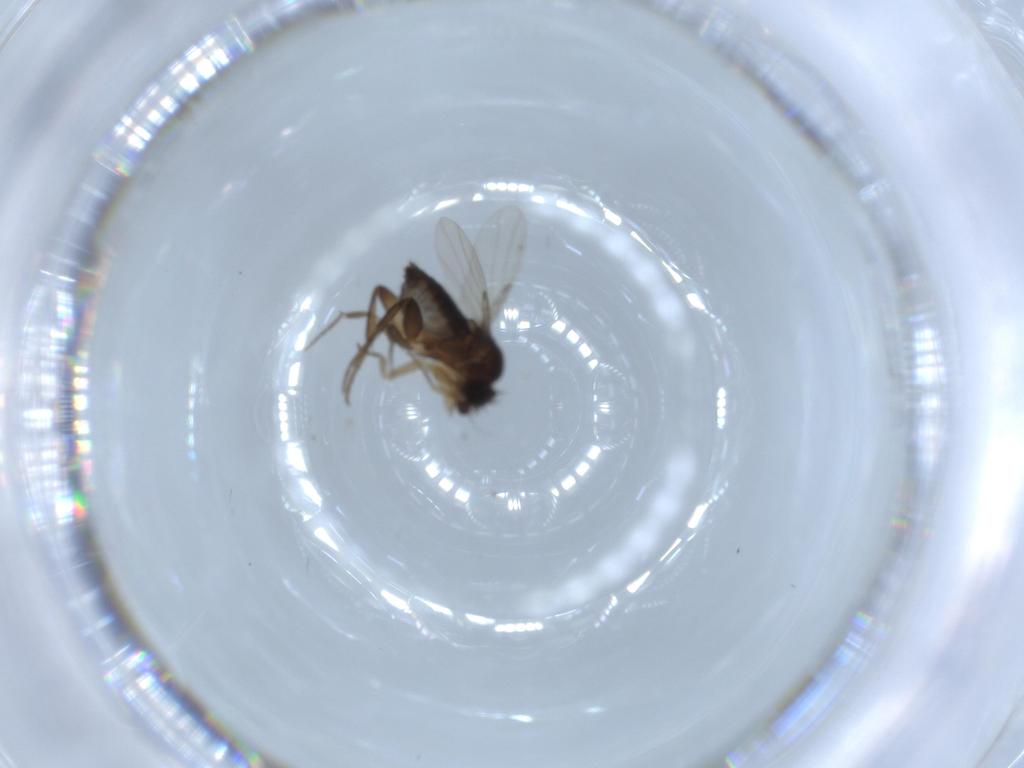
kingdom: Animalia
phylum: Arthropoda
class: Insecta
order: Diptera
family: Phoridae
